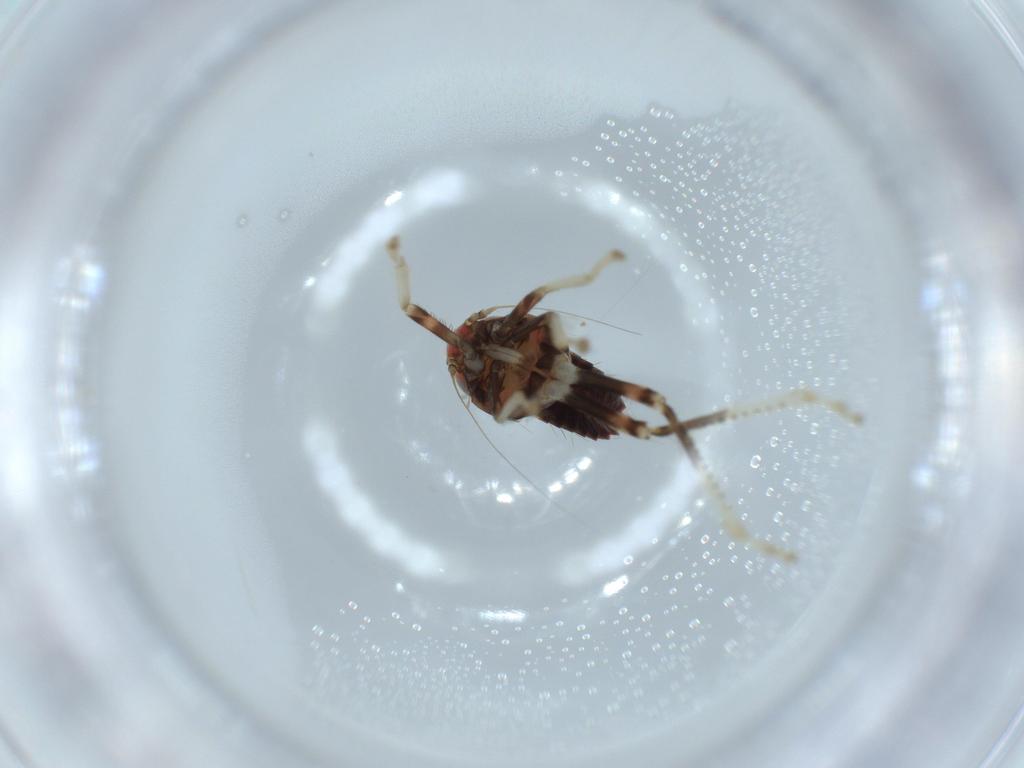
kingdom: Animalia
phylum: Arthropoda
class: Insecta
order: Hemiptera
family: Cicadellidae
